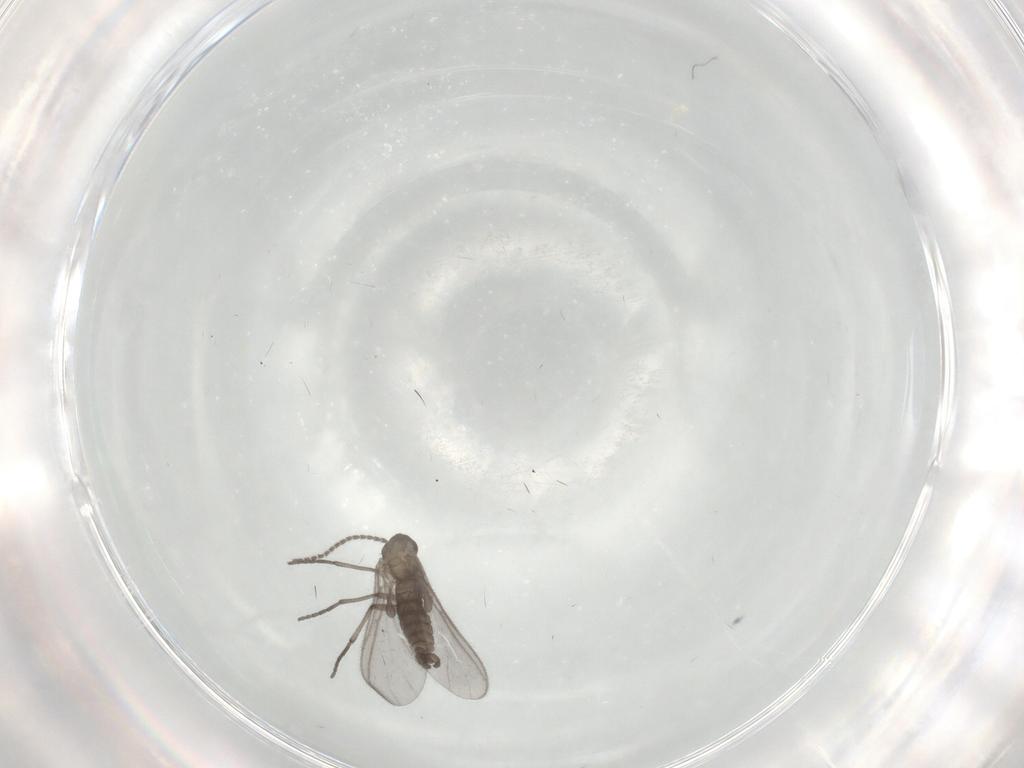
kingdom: Animalia
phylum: Arthropoda
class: Insecta
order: Diptera
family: Sciaridae
